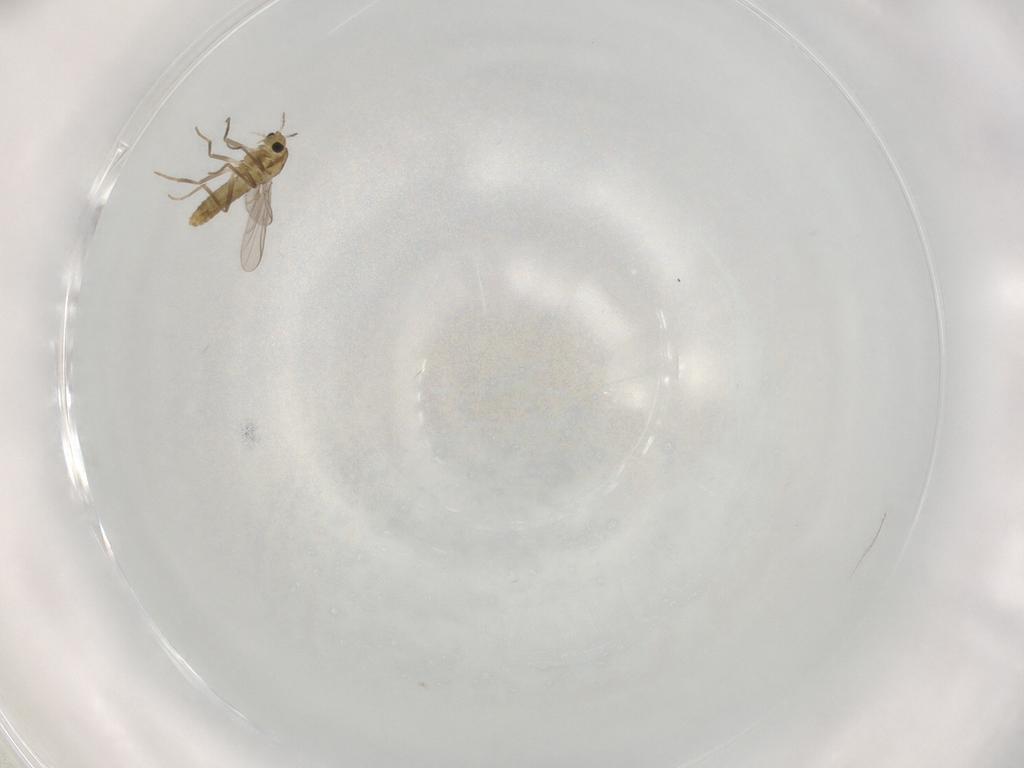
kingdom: Animalia
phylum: Arthropoda
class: Insecta
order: Diptera
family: Chironomidae
